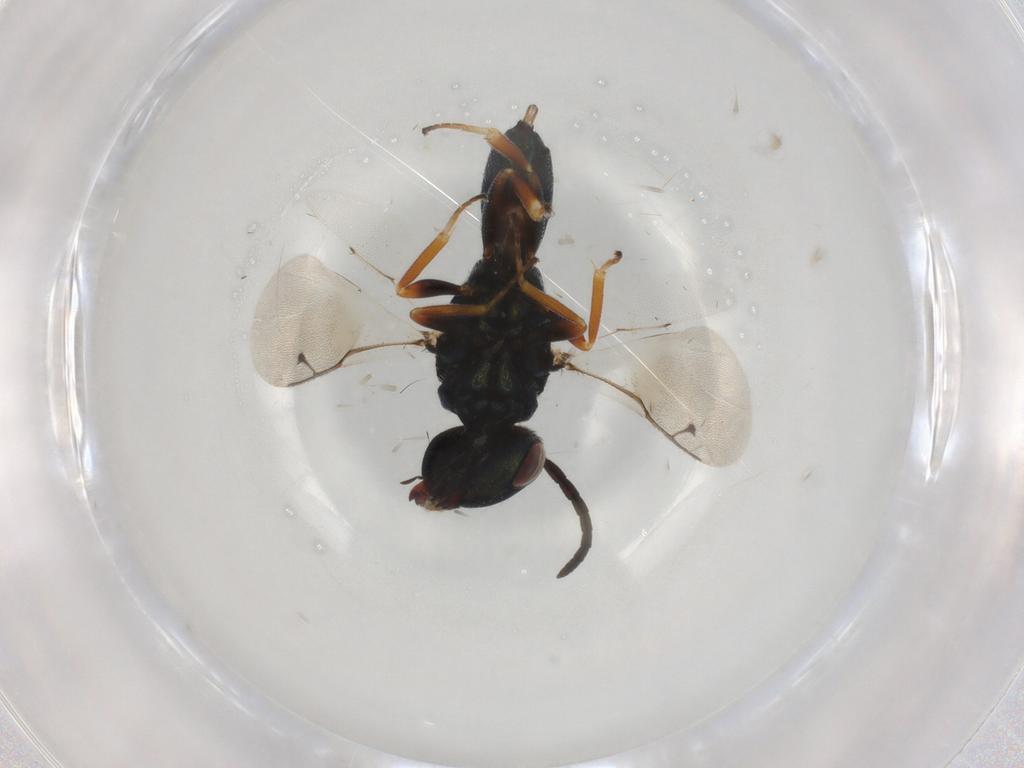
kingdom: Animalia
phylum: Arthropoda
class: Insecta
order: Hymenoptera
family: Pteromalidae
